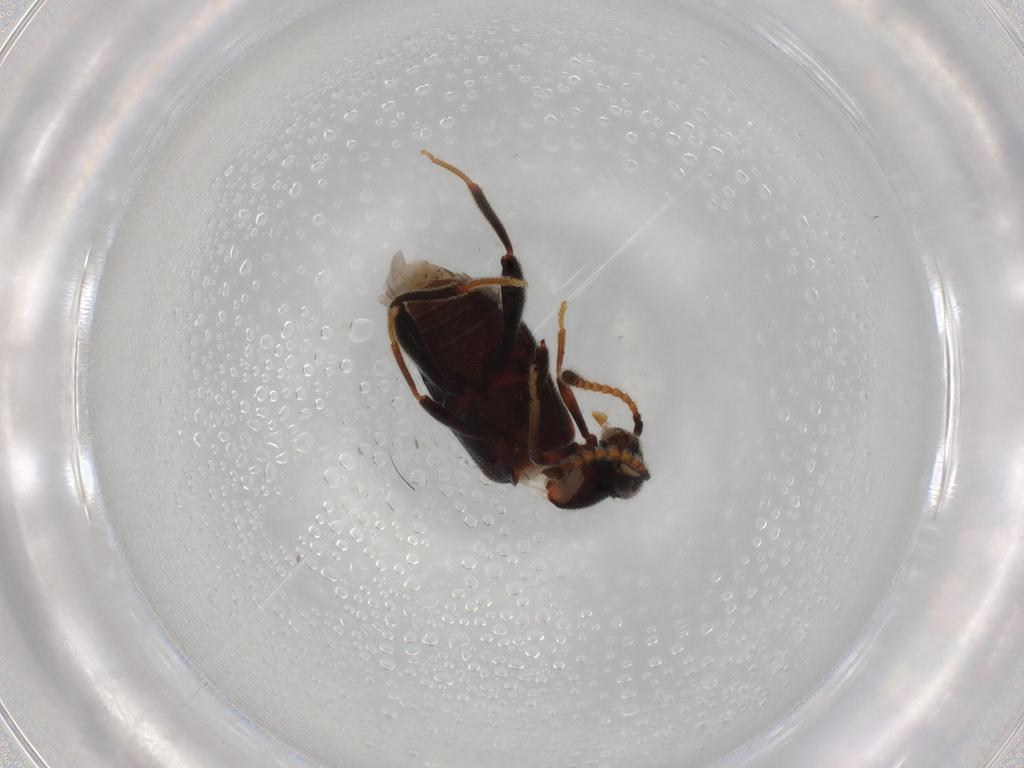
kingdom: Animalia
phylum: Arthropoda
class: Insecta
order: Coleoptera
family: Aderidae
